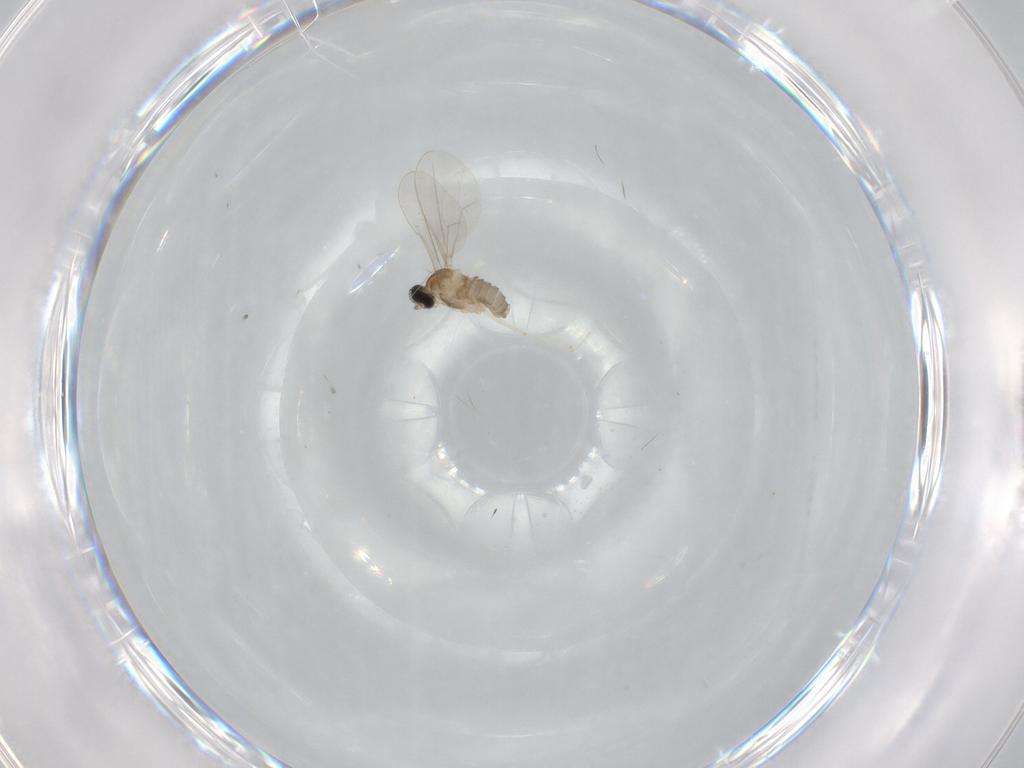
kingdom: Animalia
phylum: Arthropoda
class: Insecta
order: Diptera
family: Cecidomyiidae
